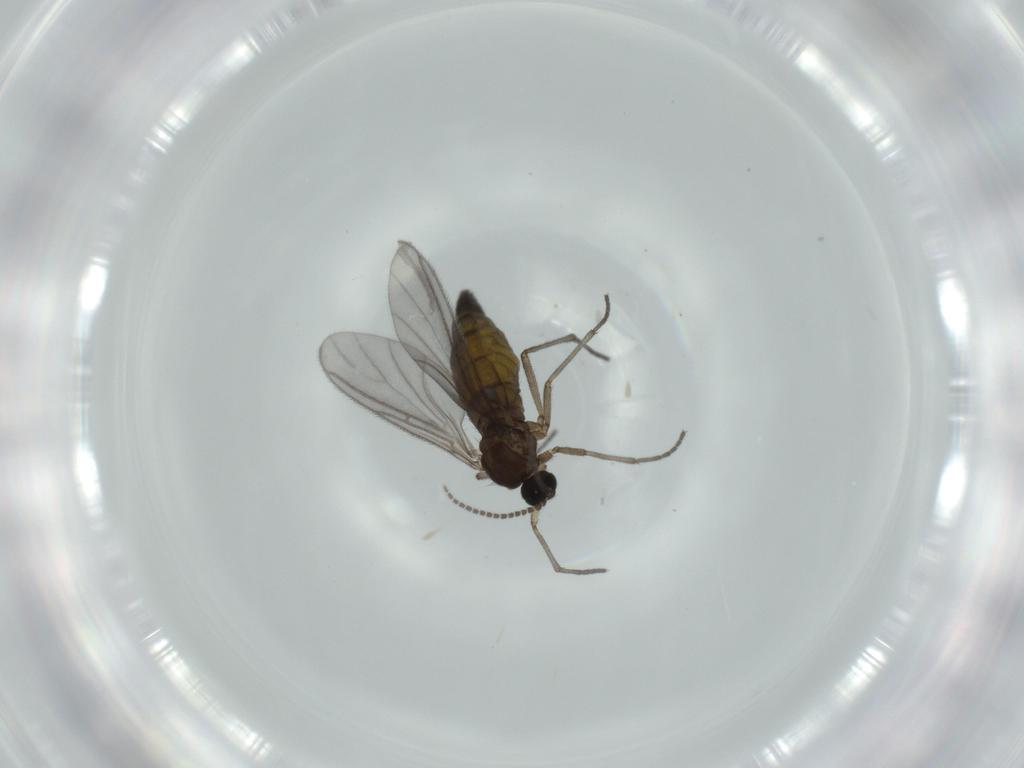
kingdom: Animalia
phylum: Arthropoda
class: Insecta
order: Diptera
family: Sciaridae
